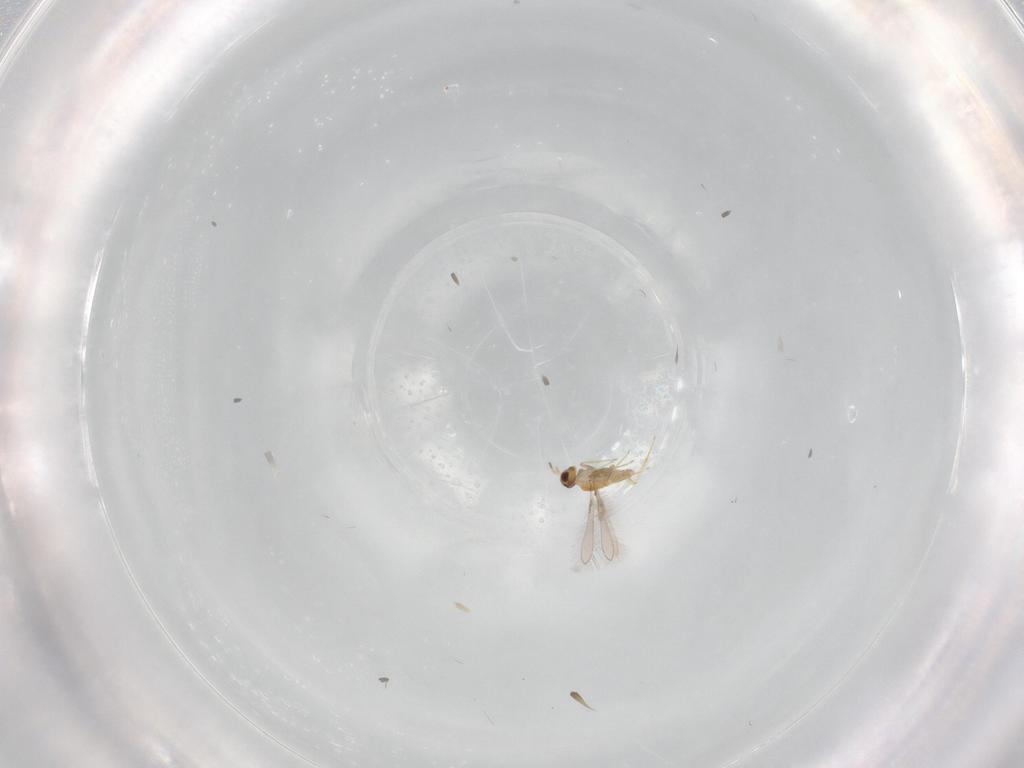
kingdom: Animalia
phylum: Arthropoda
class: Insecta
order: Hymenoptera
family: Mymaridae
